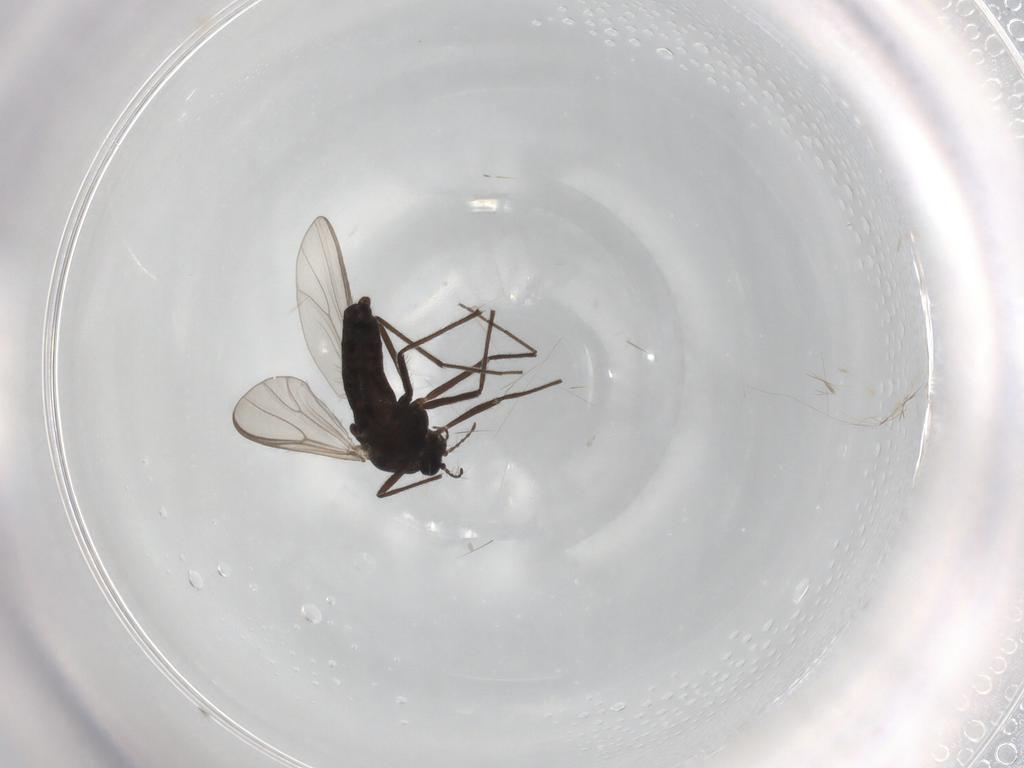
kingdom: Animalia
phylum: Arthropoda
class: Insecta
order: Diptera
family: Chironomidae
